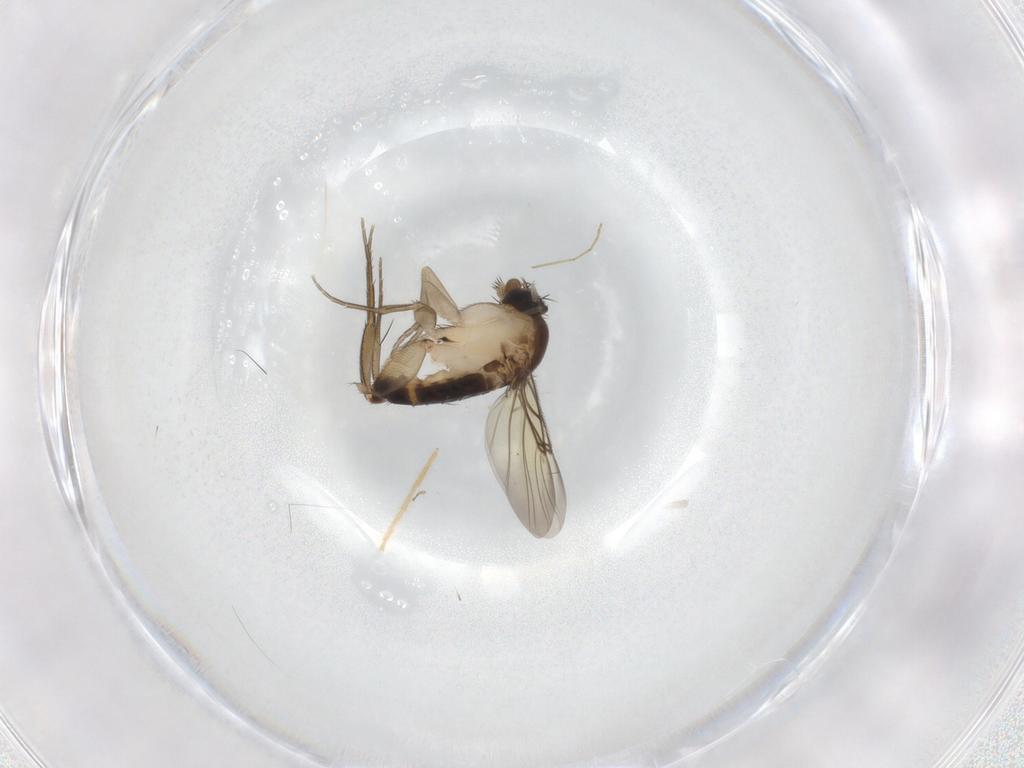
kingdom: Animalia
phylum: Arthropoda
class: Insecta
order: Diptera
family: Chironomidae
